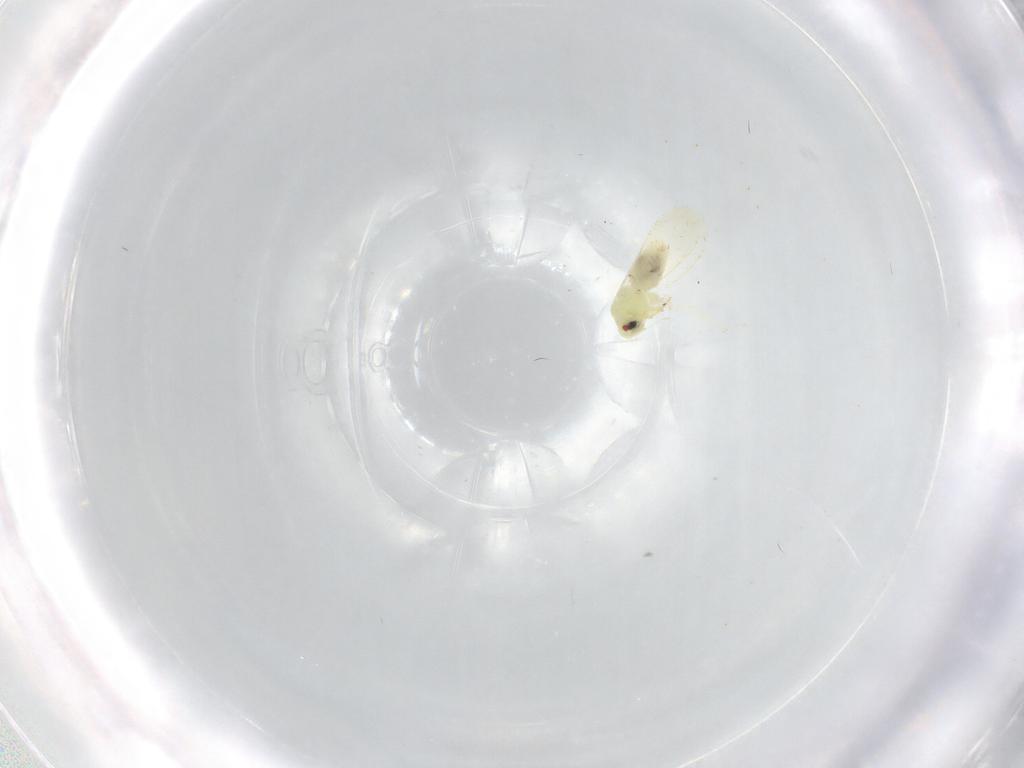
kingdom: Animalia
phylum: Arthropoda
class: Insecta
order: Hemiptera
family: Aleyrodidae
